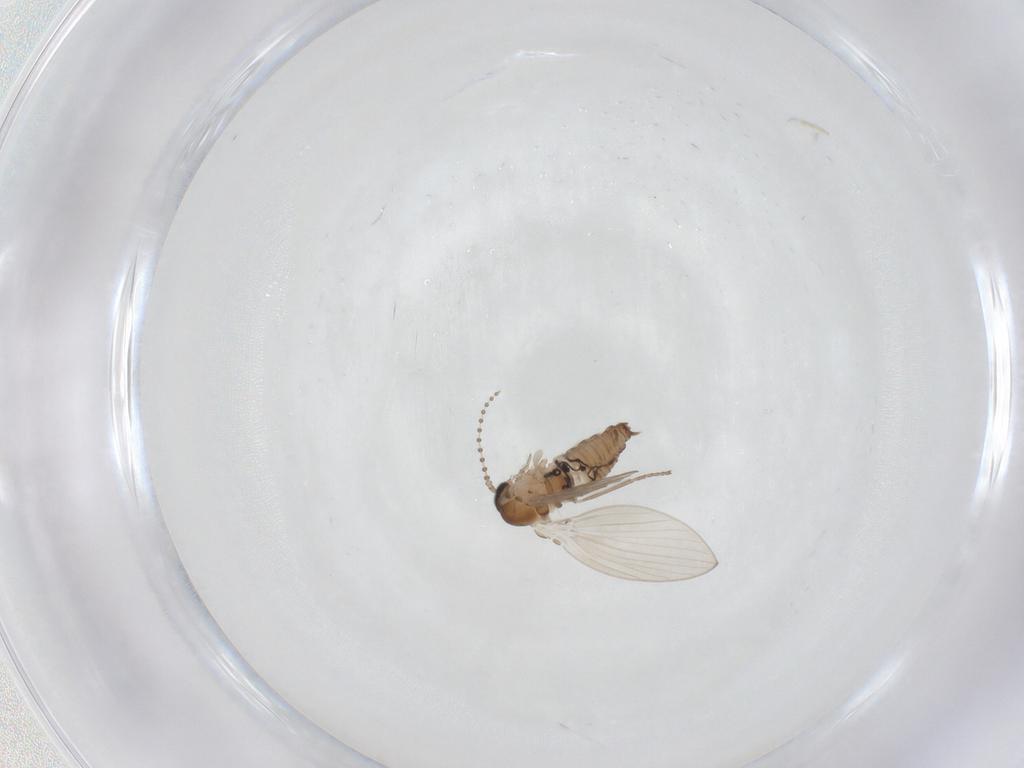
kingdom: Animalia
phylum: Arthropoda
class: Insecta
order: Diptera
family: Psychodidae
